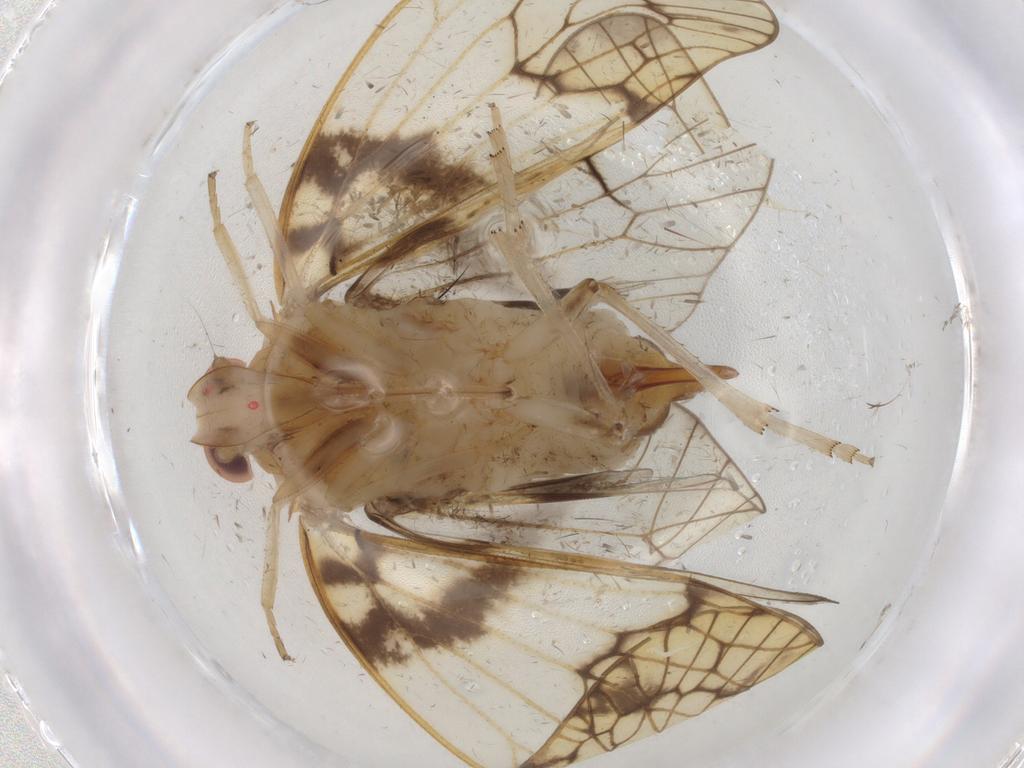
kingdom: Animalia
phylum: Arthropoda
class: Insecta
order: Hemiptera
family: Cixiidae
